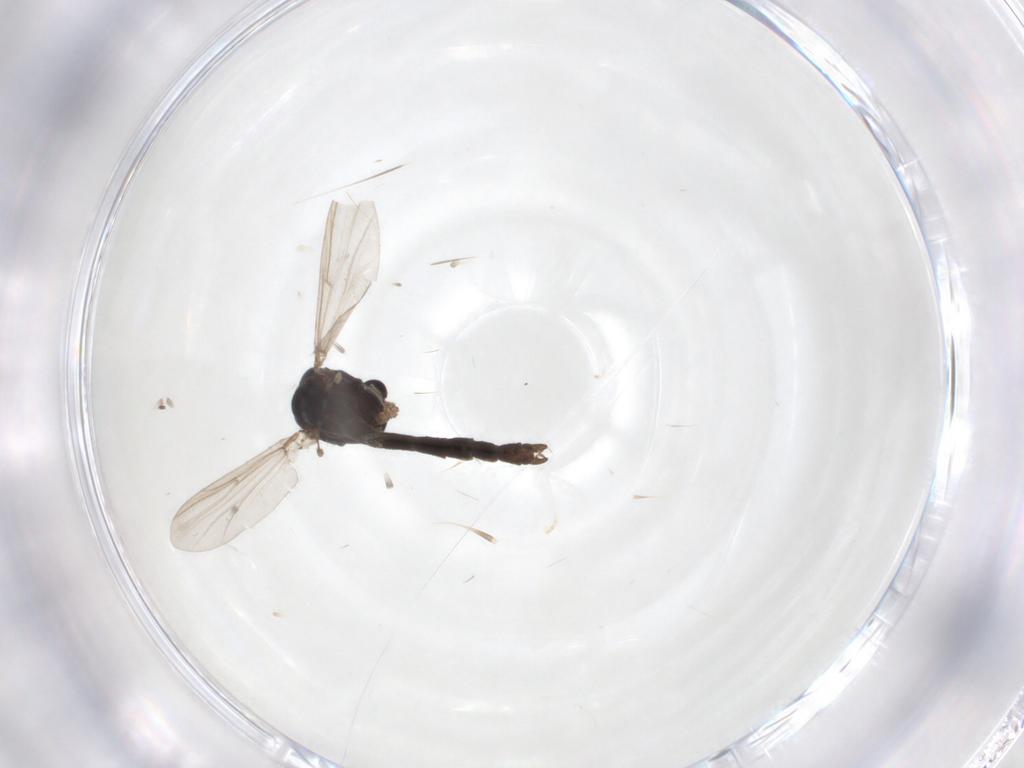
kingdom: Animalia
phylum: Arthropoda
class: Insecta
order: Diptera
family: Chironomidae
